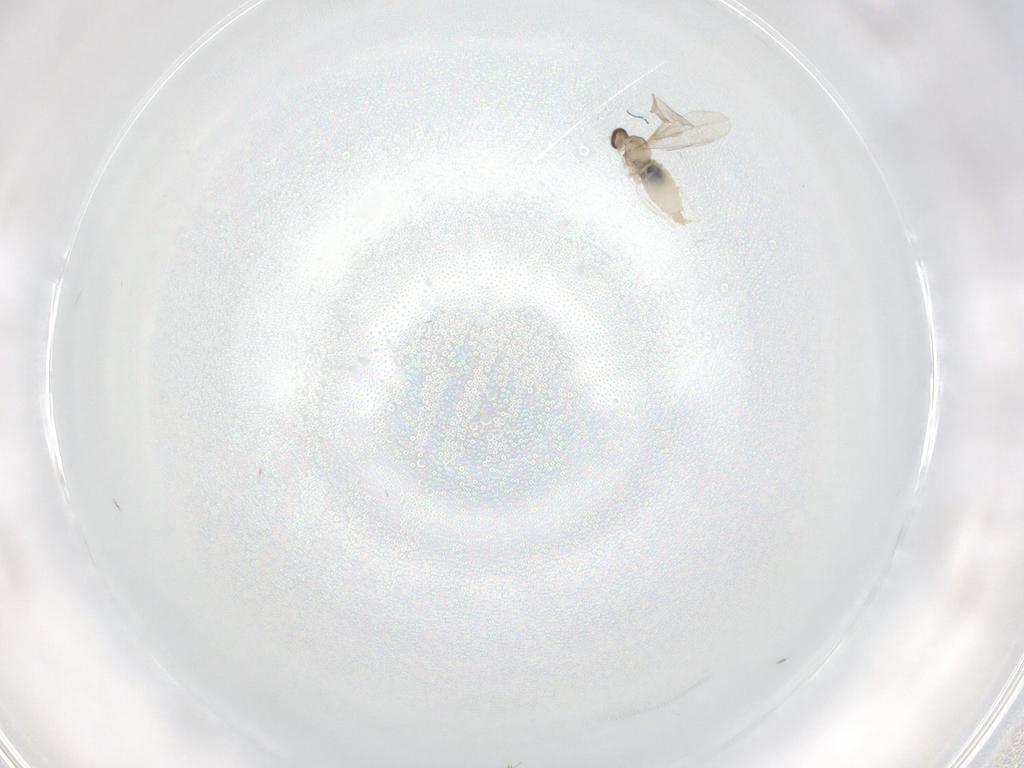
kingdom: Animalia
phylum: Arthropoda
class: Insecta
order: Diptera
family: Cecidomyiidae
